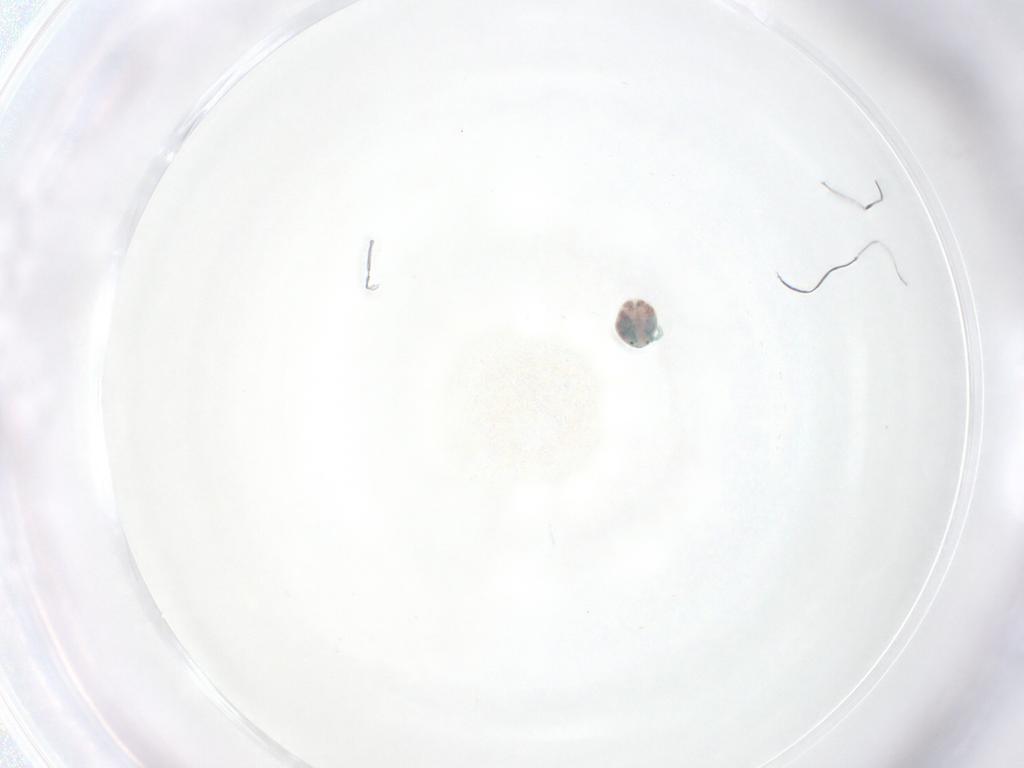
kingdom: Animalia
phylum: Arthropoda
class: Arachnida
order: Trombidiformes
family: Arrenuridae
